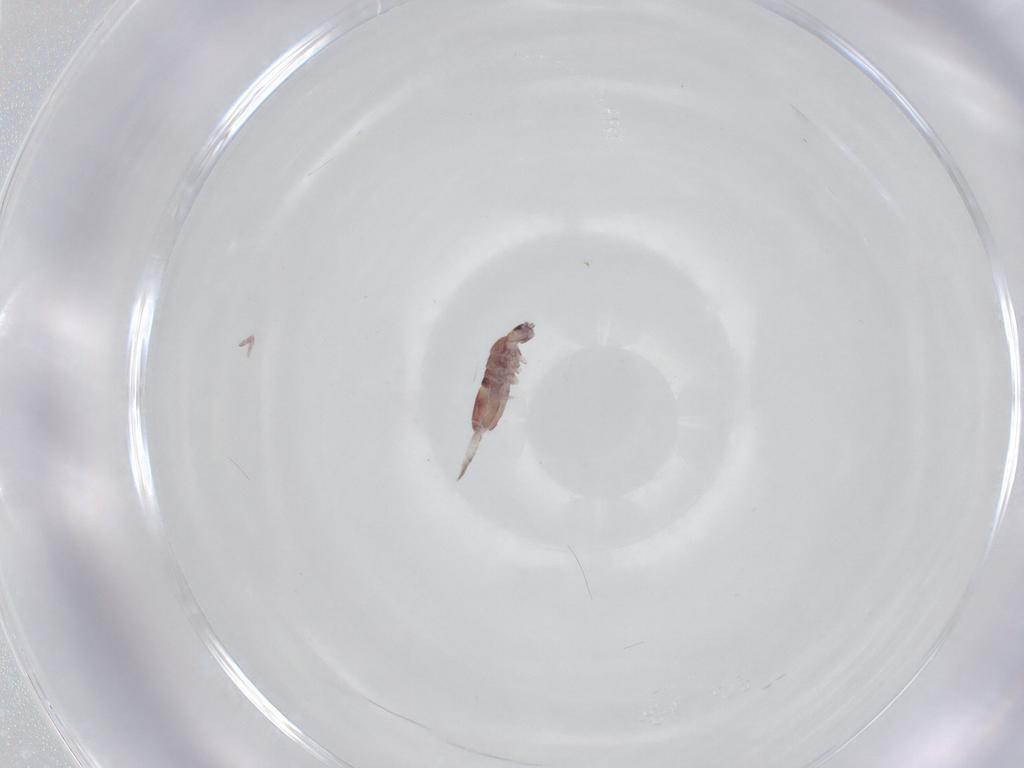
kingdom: Animalia
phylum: Arthropoda
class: Collembola
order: Entomobryomorpha
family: Entomobryidae
